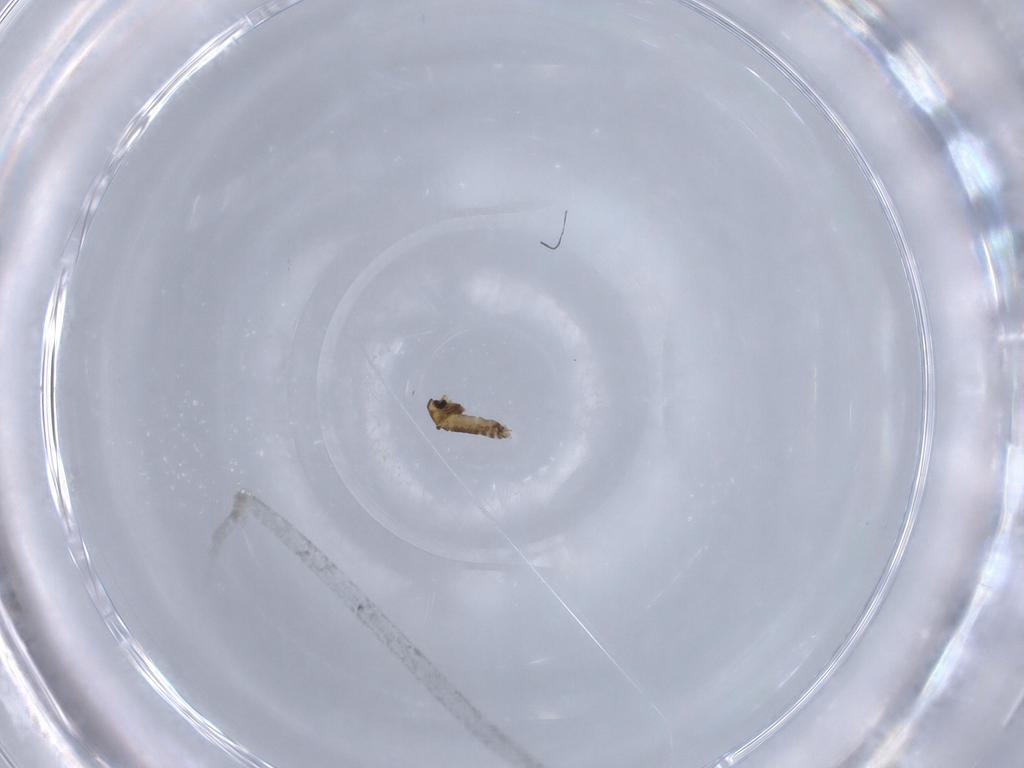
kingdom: Animalia
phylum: Arthropoda
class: Insecta
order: Diptera
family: Chironomidae
